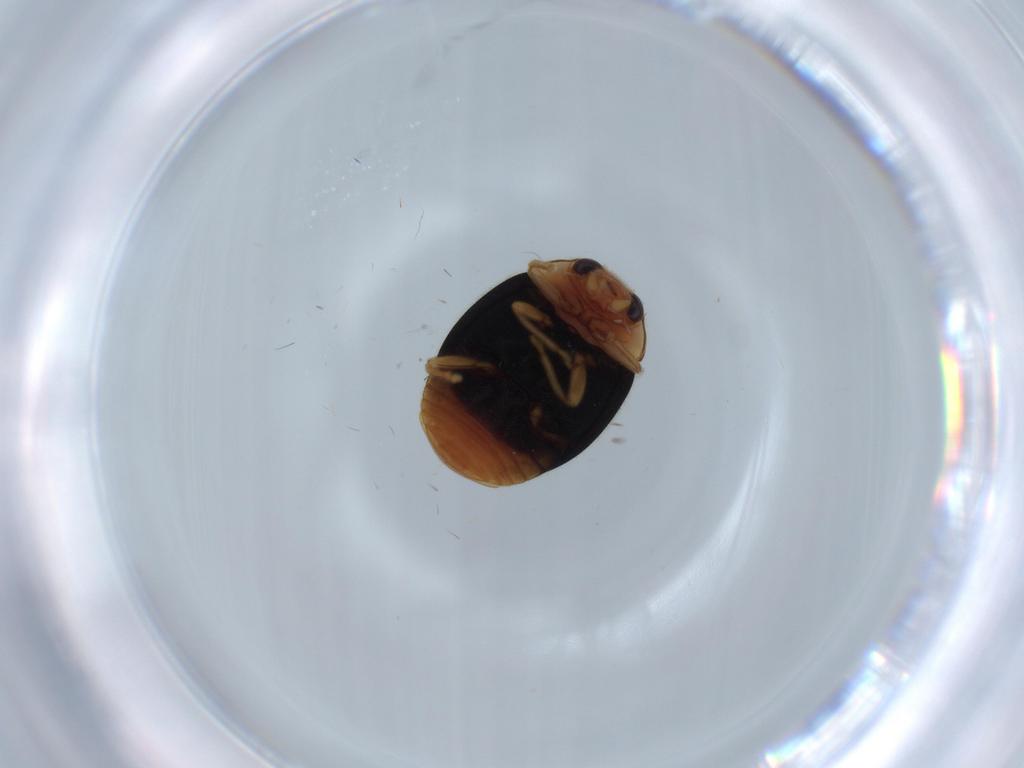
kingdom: Animalia
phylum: Arthropoda
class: Insecta
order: Coleoptera
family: Coccinellidae
